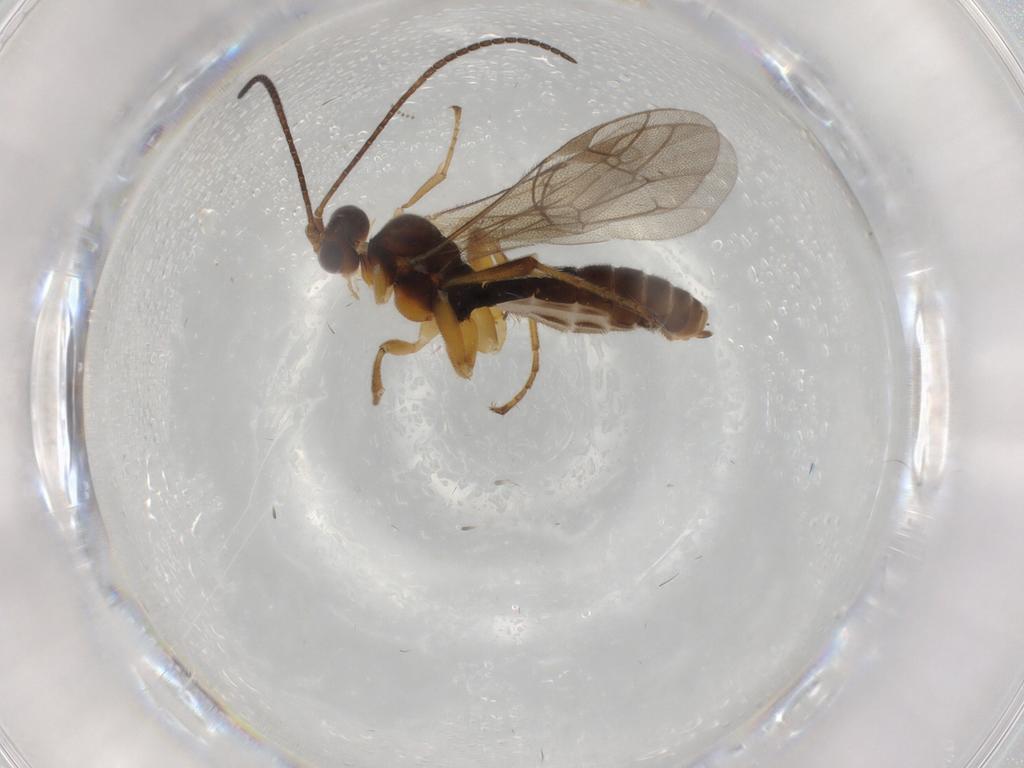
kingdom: Animalia
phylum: Arthropoda
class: Insecta
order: Hymenoptera
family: Ichneumonidae
